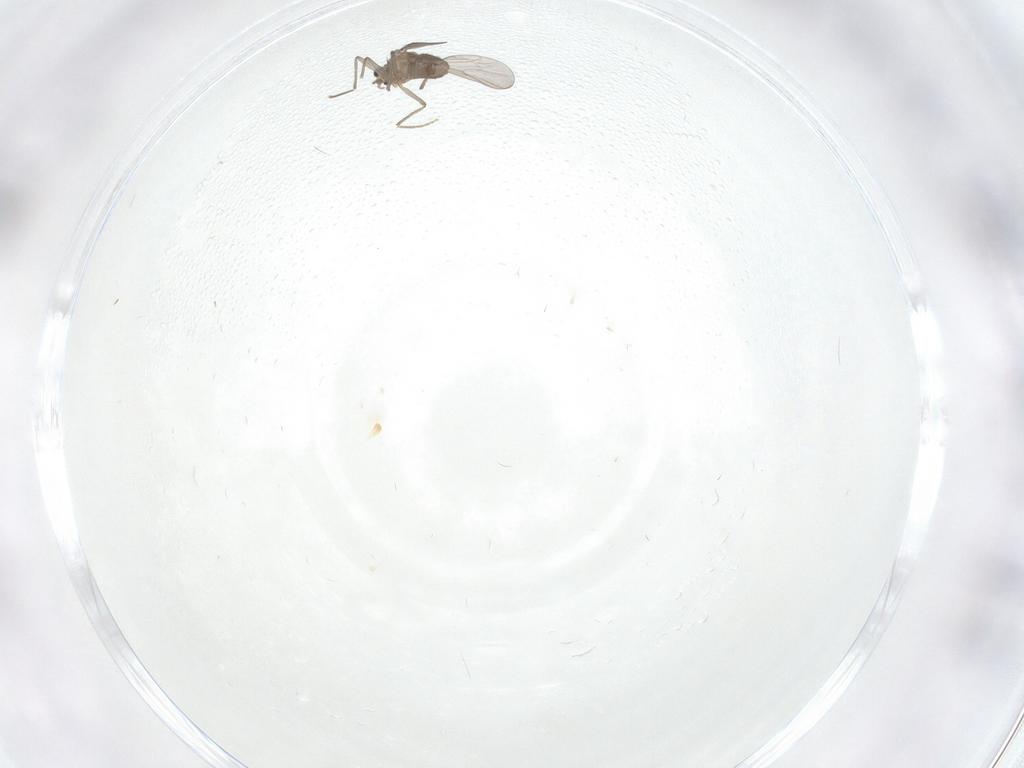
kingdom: Animalia
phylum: Arthropoda
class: Insecta
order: Diptera
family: Chironomidae
